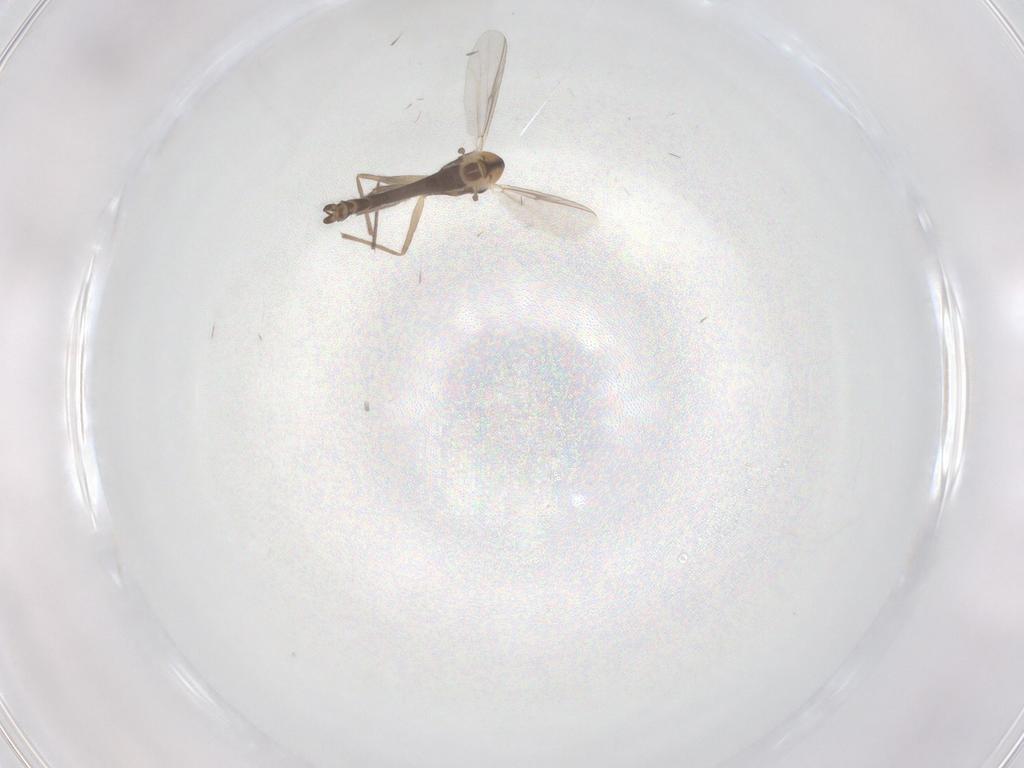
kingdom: Animalia
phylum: Arthropoda
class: Insecta
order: Diptera
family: Chironomidae
